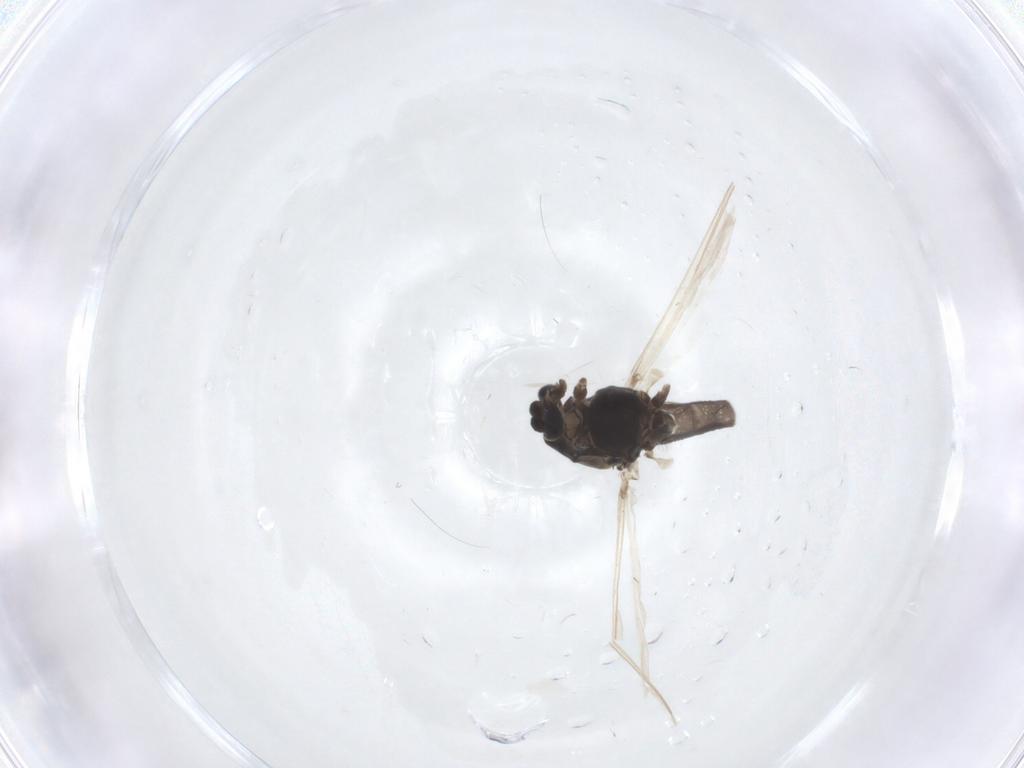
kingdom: Animalia
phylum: Arthropoda
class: Insecta
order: Diptera
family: Chironomidae
